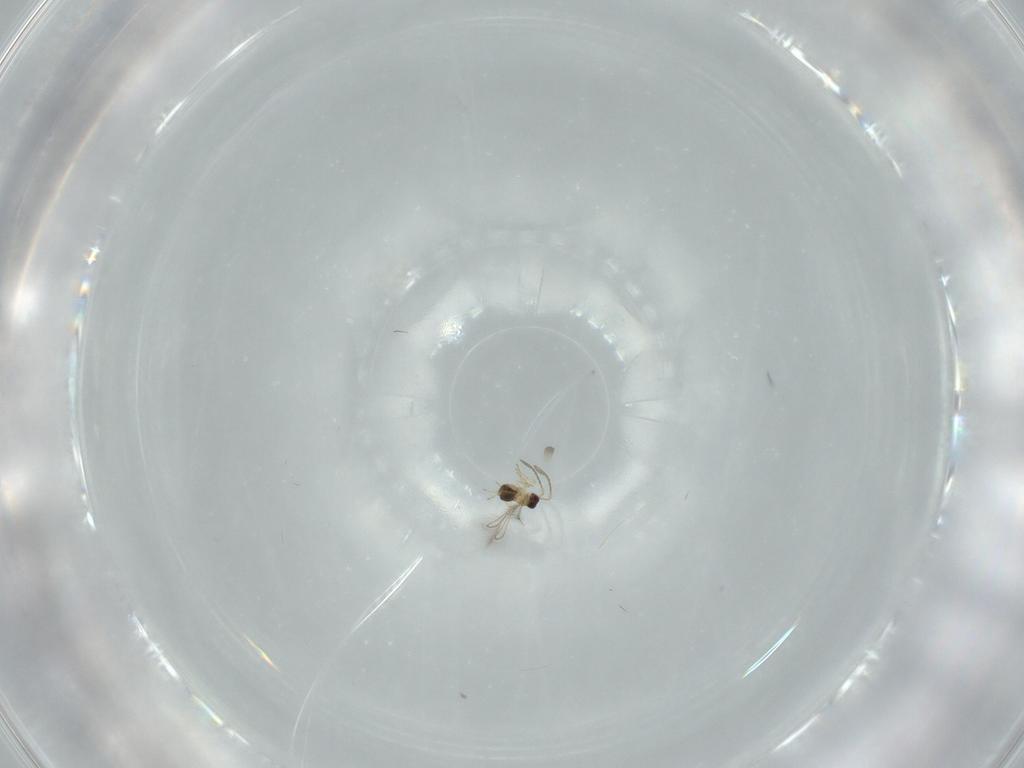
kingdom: Animalia
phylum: Arthropoda
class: Insecta
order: Hymenoptera
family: Mymaridae
